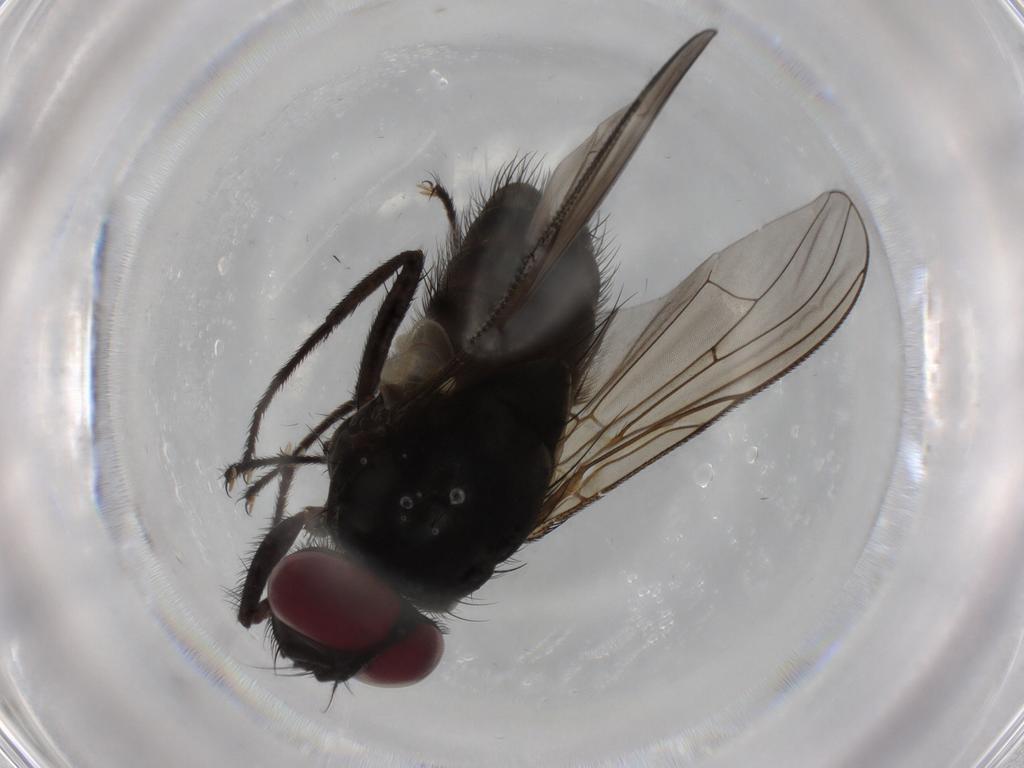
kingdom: Animalia
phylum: Arthropoda
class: Insecta
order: Diptera
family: Muscidae
